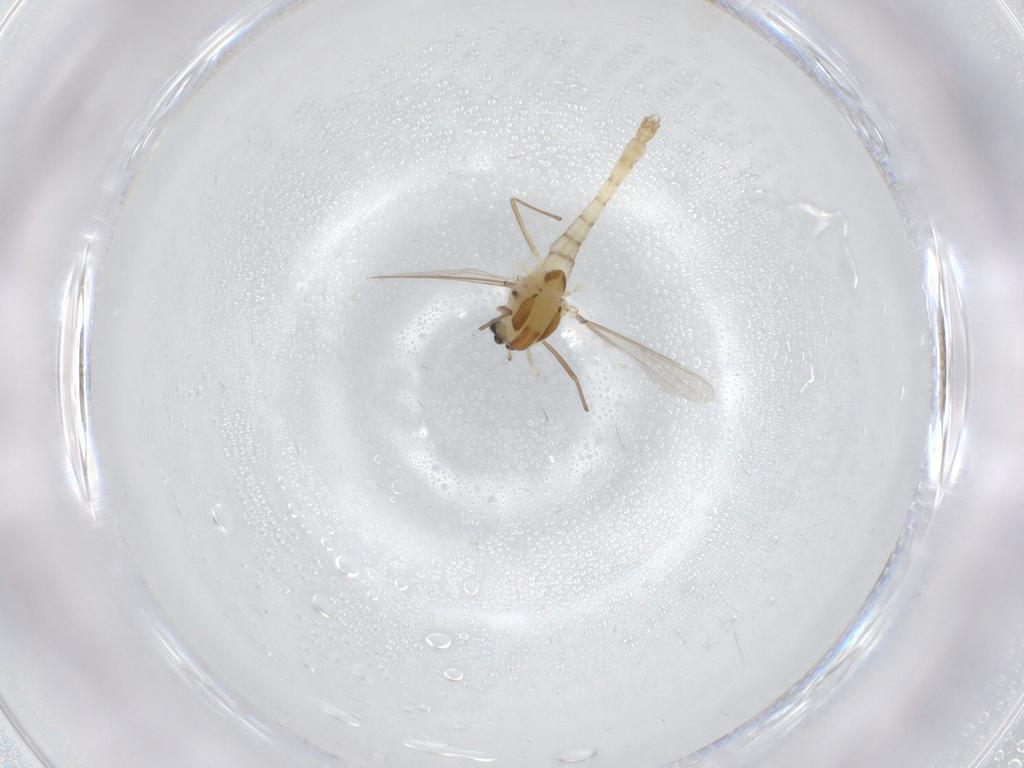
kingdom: Animalia
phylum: Arthropoda
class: Insecta
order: Diptera
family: Chironomidae
